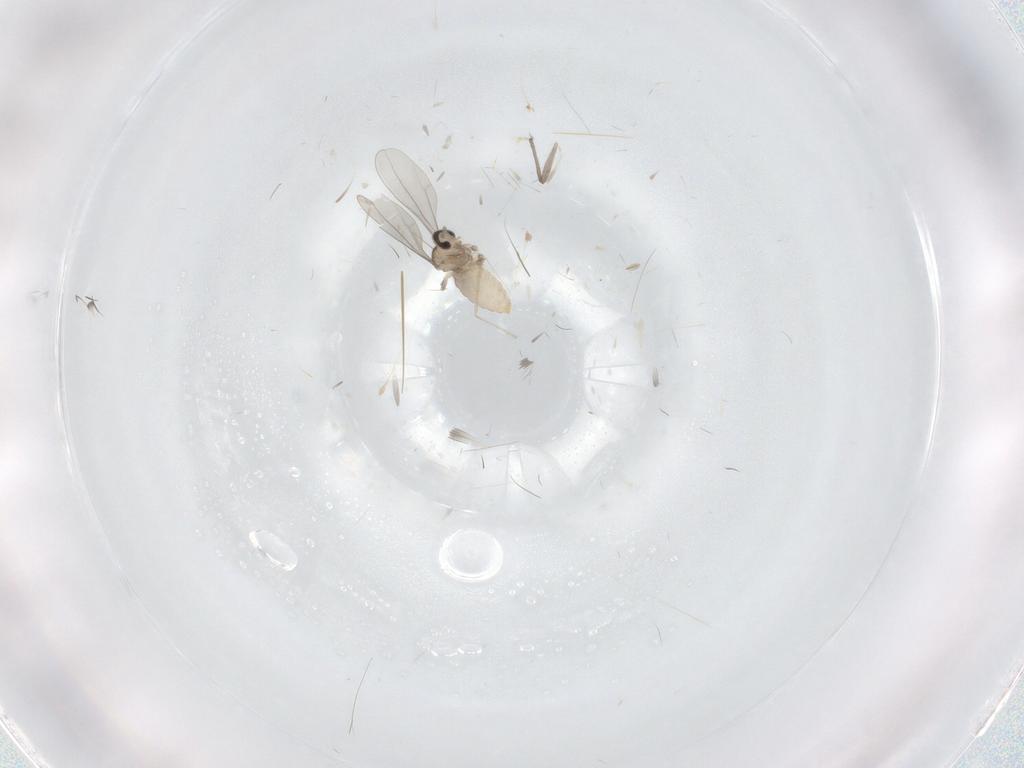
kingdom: Animalia
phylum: Arthropoda
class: Insecta
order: Diptera
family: Cecidomyiidae
